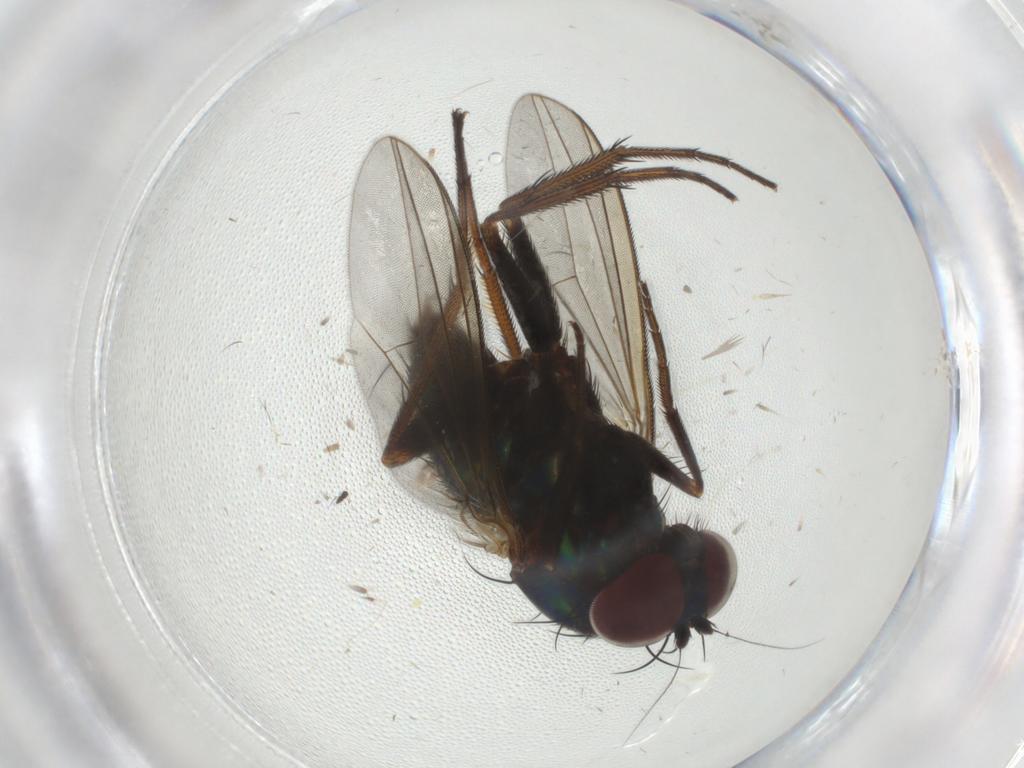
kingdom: Animalia
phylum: Arthropoda
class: Insecta
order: Diptera
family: Dolichopodidae
